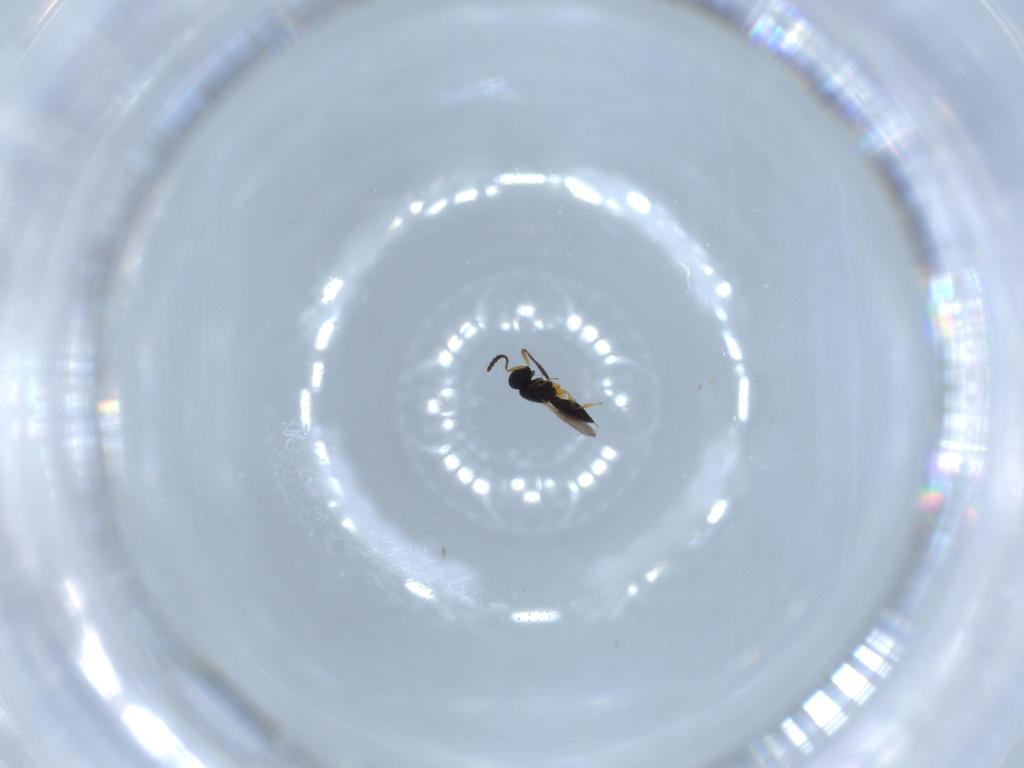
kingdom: Animalia
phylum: Arthropoda
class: Insecta
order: Hymenoptera
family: Scelionidae
